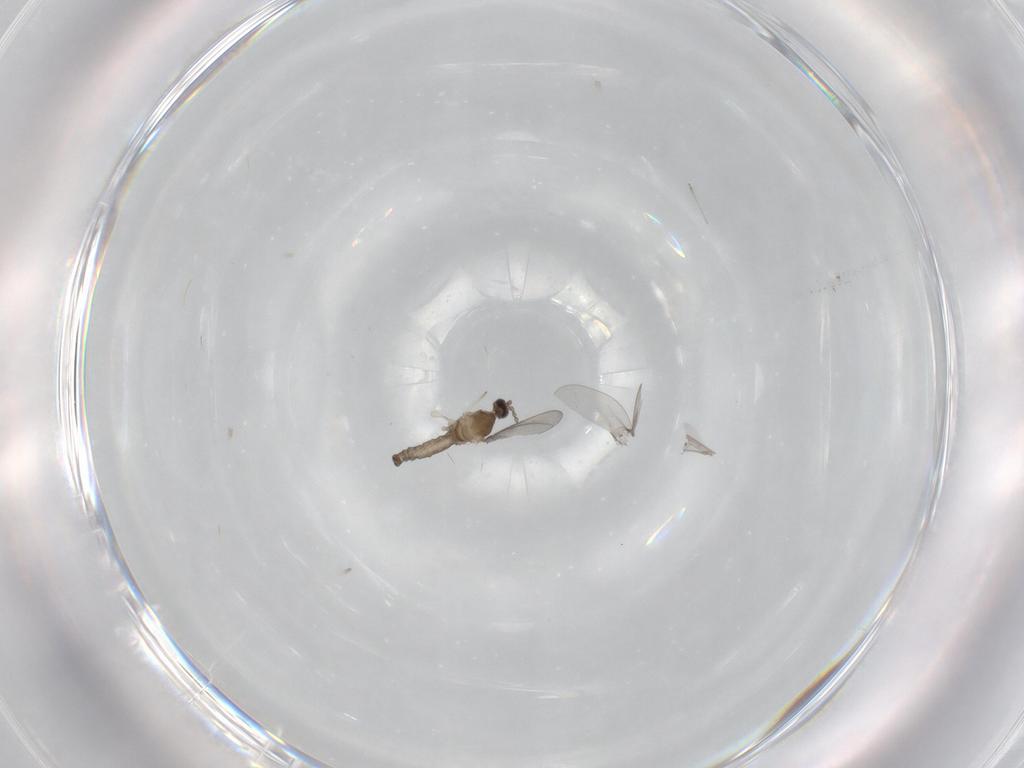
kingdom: Animalia
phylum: Arthropoda
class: Insecta
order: Diptera
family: Cecidomyiidae
